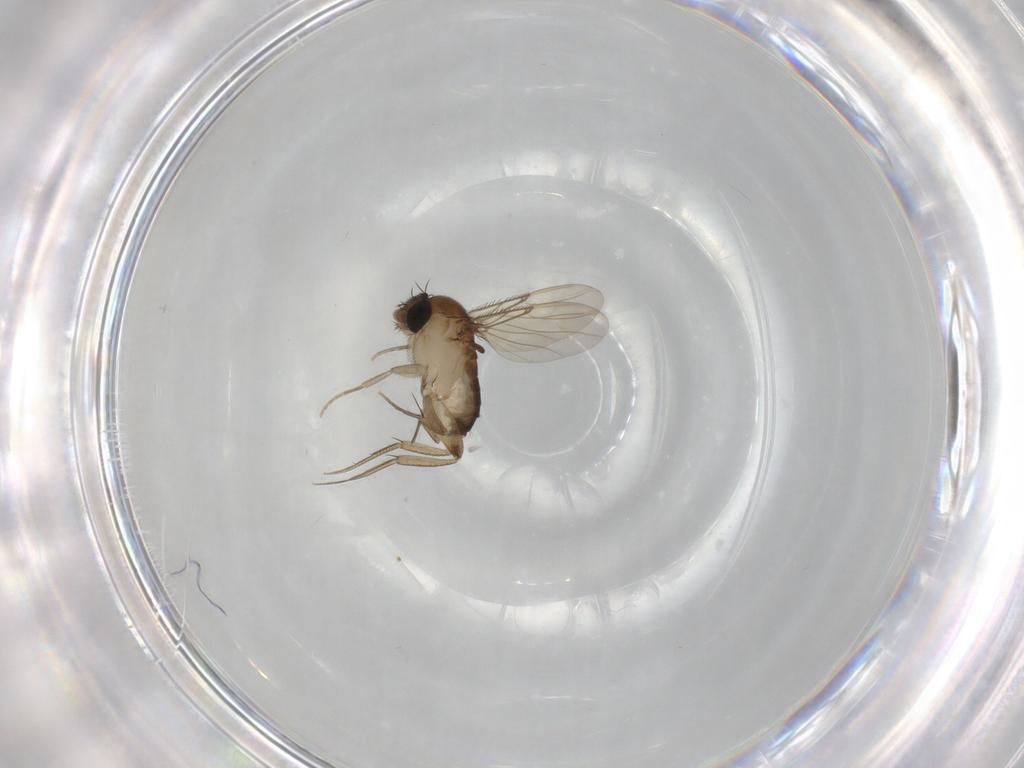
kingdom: Animalia
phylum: Arthropoda
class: Insecta
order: Diptera
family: Phoridae
